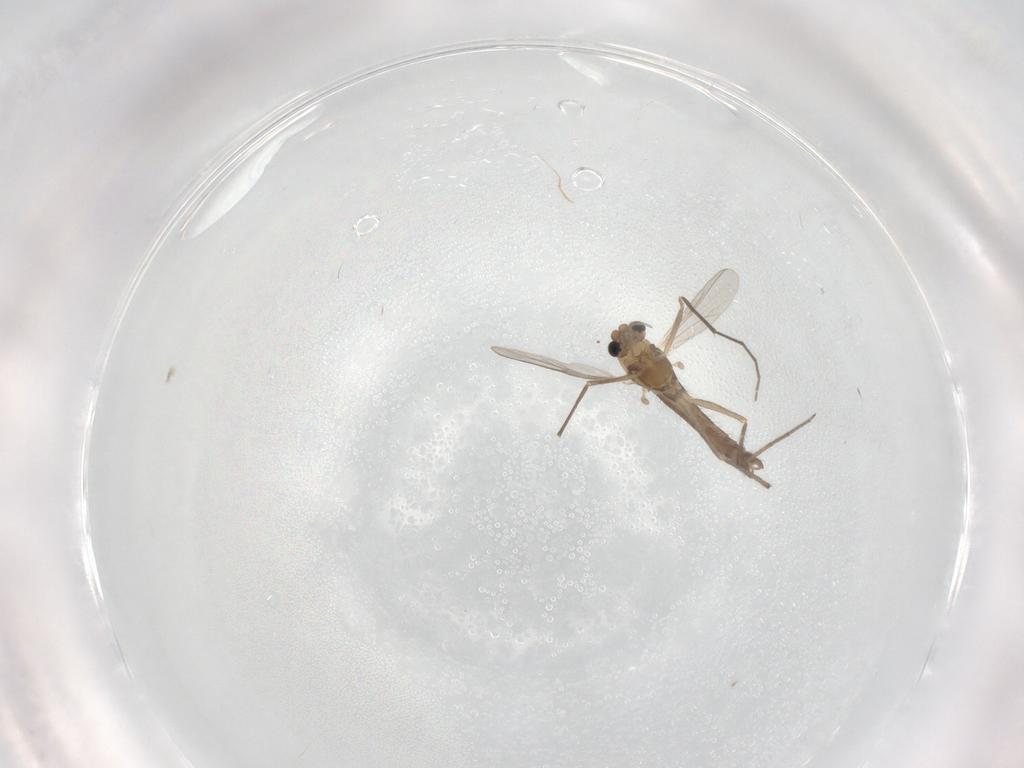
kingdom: Animalia
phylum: Arthropoda
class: Insecta
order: Diptera
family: Chironomidae
